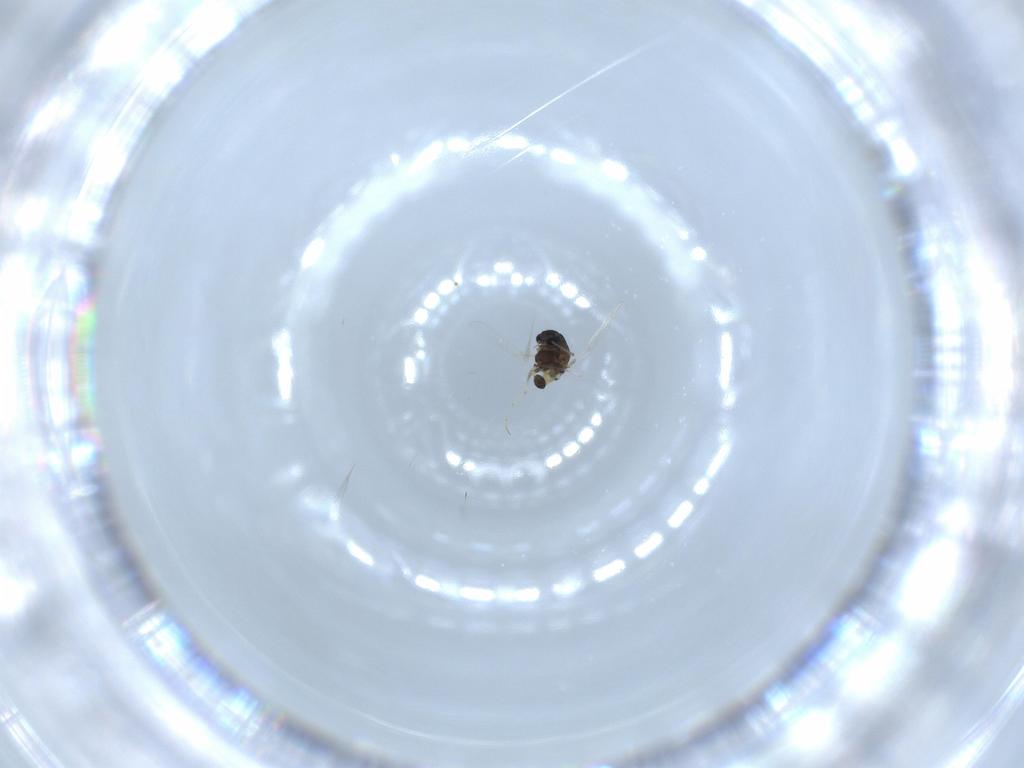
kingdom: Animalia
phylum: Arthropoda
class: Insecta
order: Diptera
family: Chironomidae
